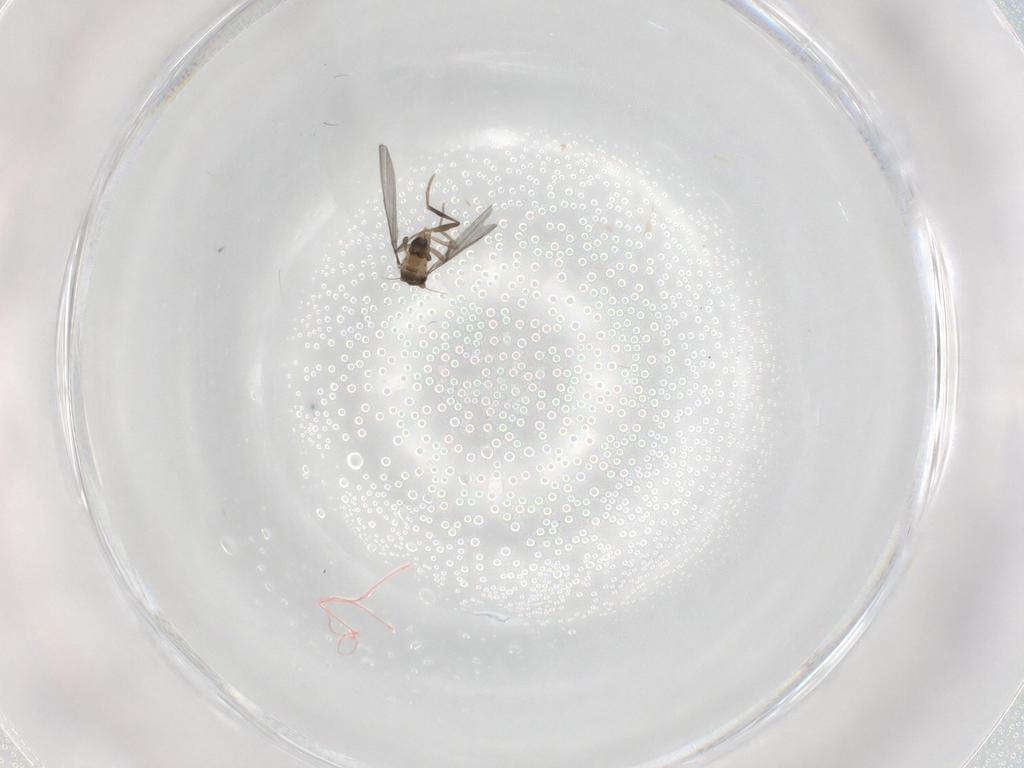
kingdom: Animalia
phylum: Arthropoda
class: Insecta
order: Diptera
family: Phoridae
